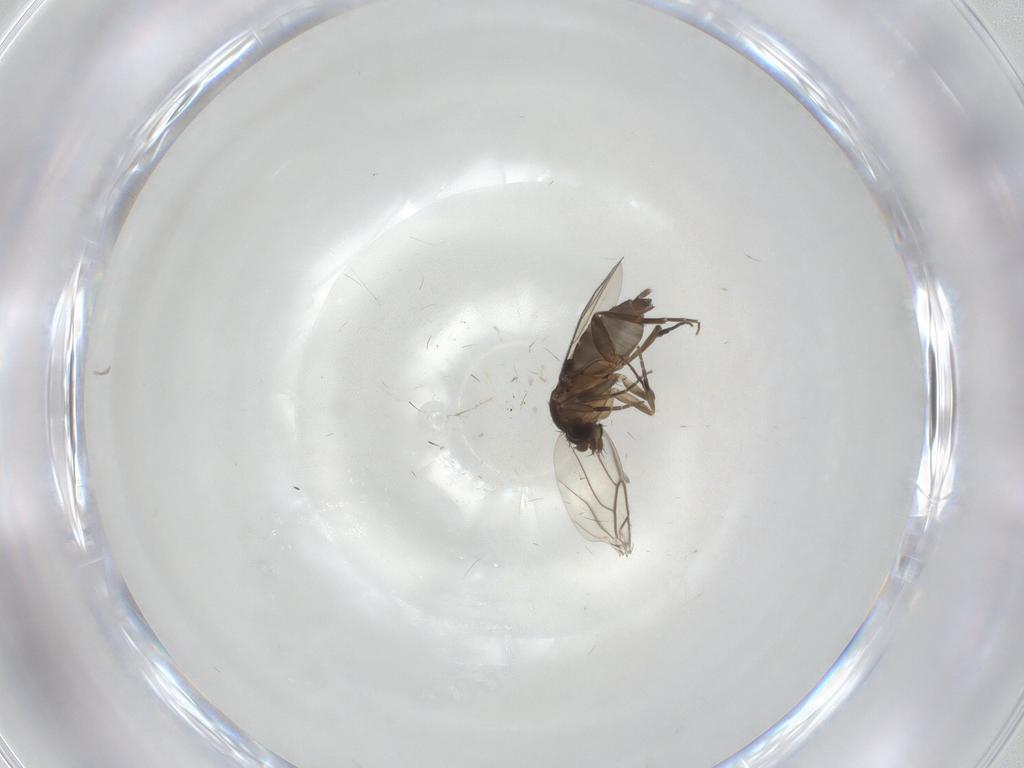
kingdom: Animalia
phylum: Arthropoda
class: Insecta
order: Diptera
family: Phoridae
